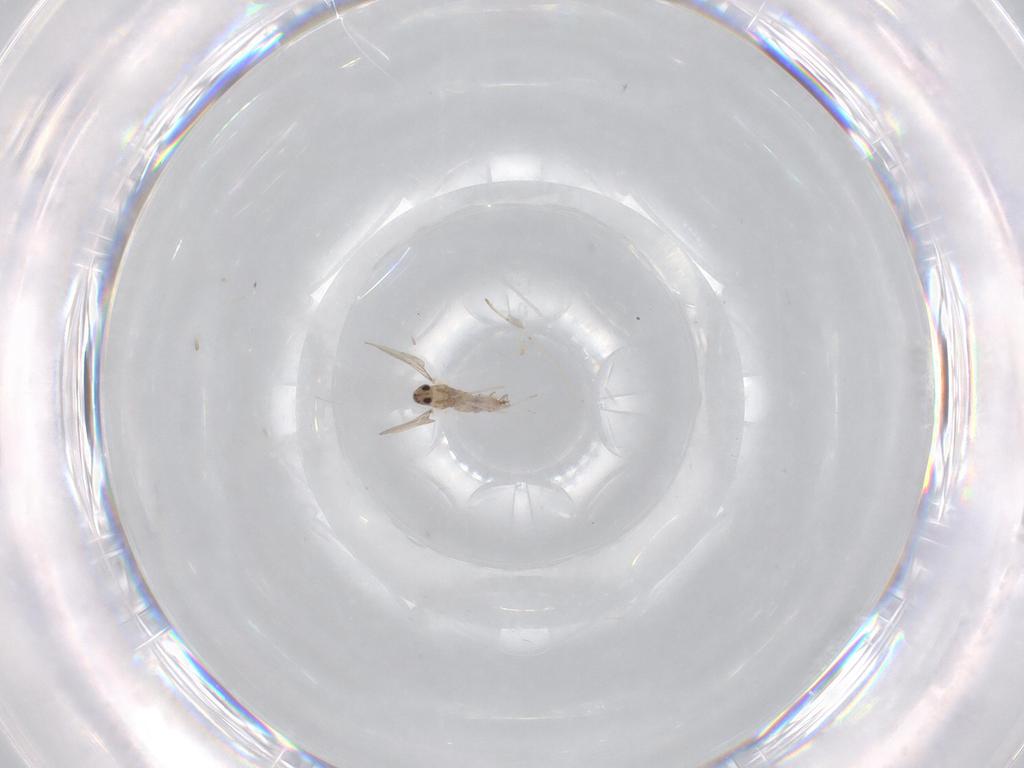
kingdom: Animalia
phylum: Arthropoda
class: Insecta
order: Diptera
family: Cecidomyiidae
